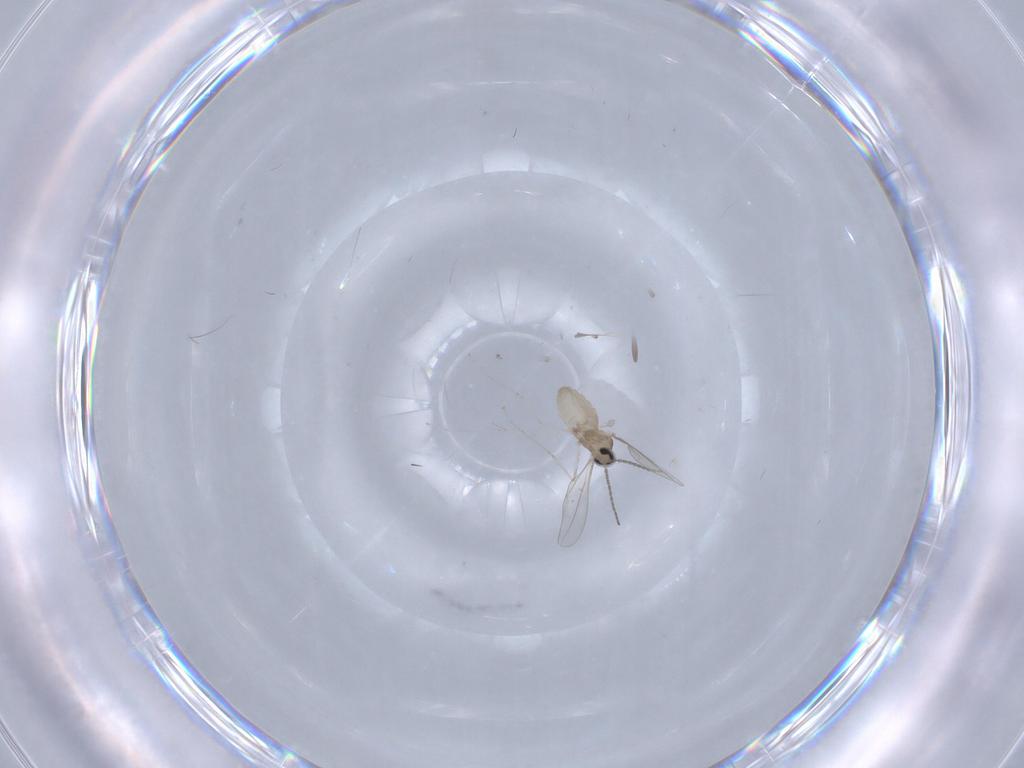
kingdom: Animalia
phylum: Arthropoda
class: Insecta
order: Diptera
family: Cecidomyiidae
